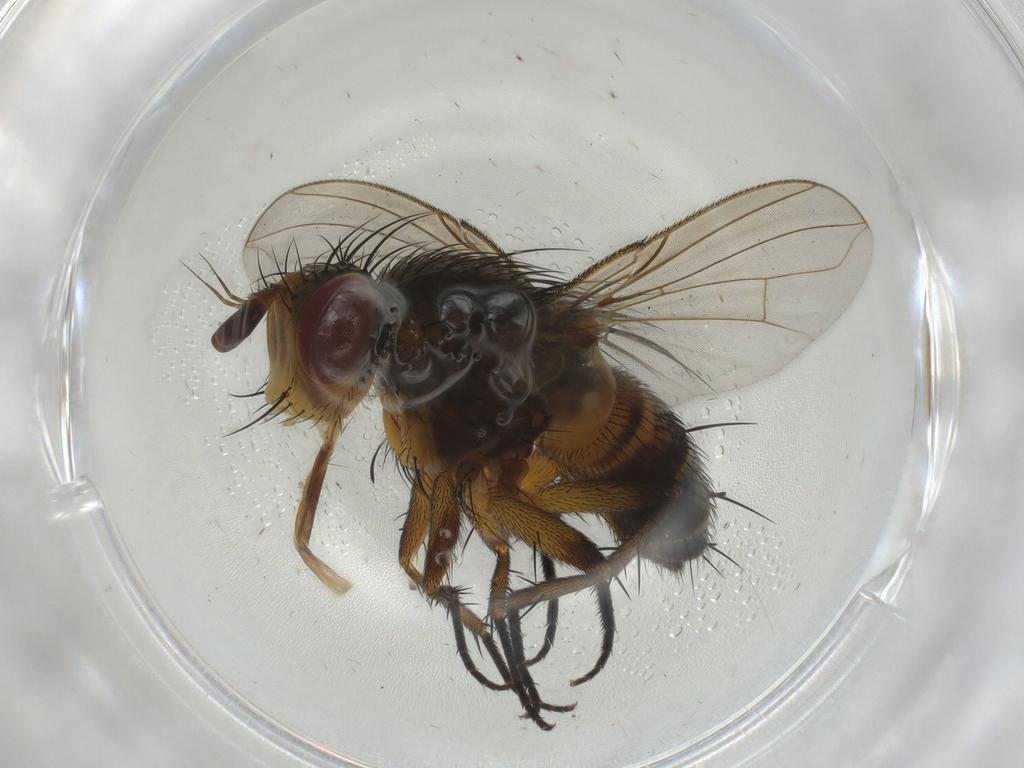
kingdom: Animalia
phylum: Arthropoda
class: Insecta
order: Diptera
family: Tachinidae
